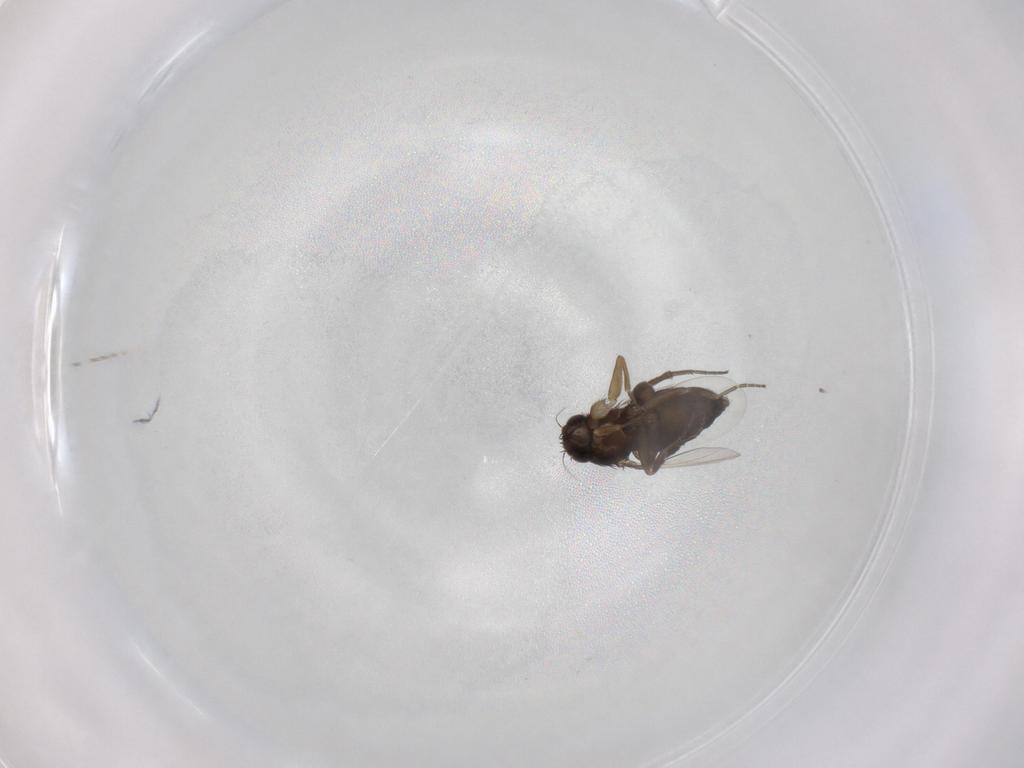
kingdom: Animalia
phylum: Arthropoda
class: Insecta
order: Diptera
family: Phoridae
